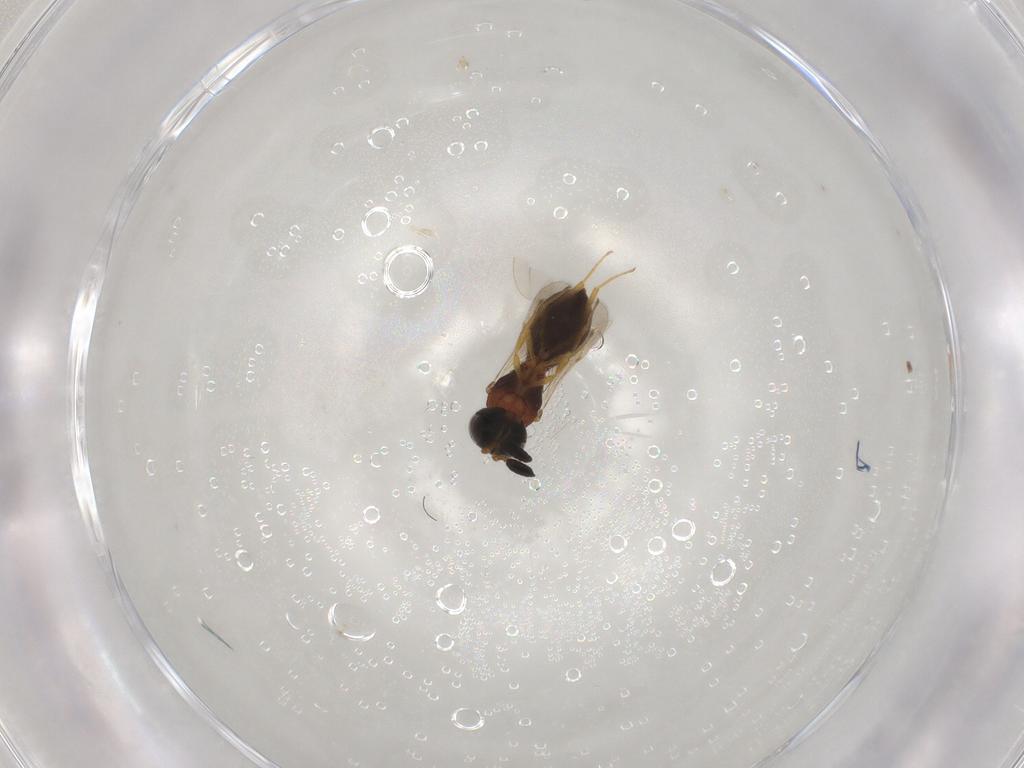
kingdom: Animalia
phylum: Arthropoda
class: Insecta
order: Hymenoptera
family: Scelionidae
